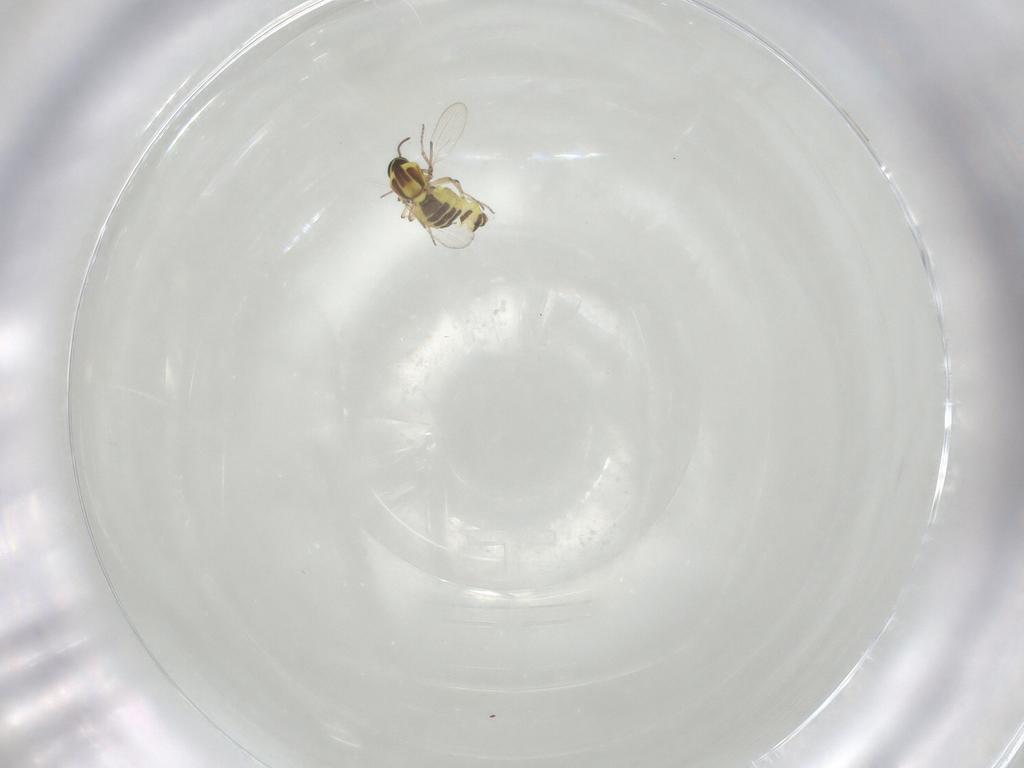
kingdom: Animalia
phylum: Arthropoda
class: Insecta
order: Diptera
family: Ceratopogonidae
